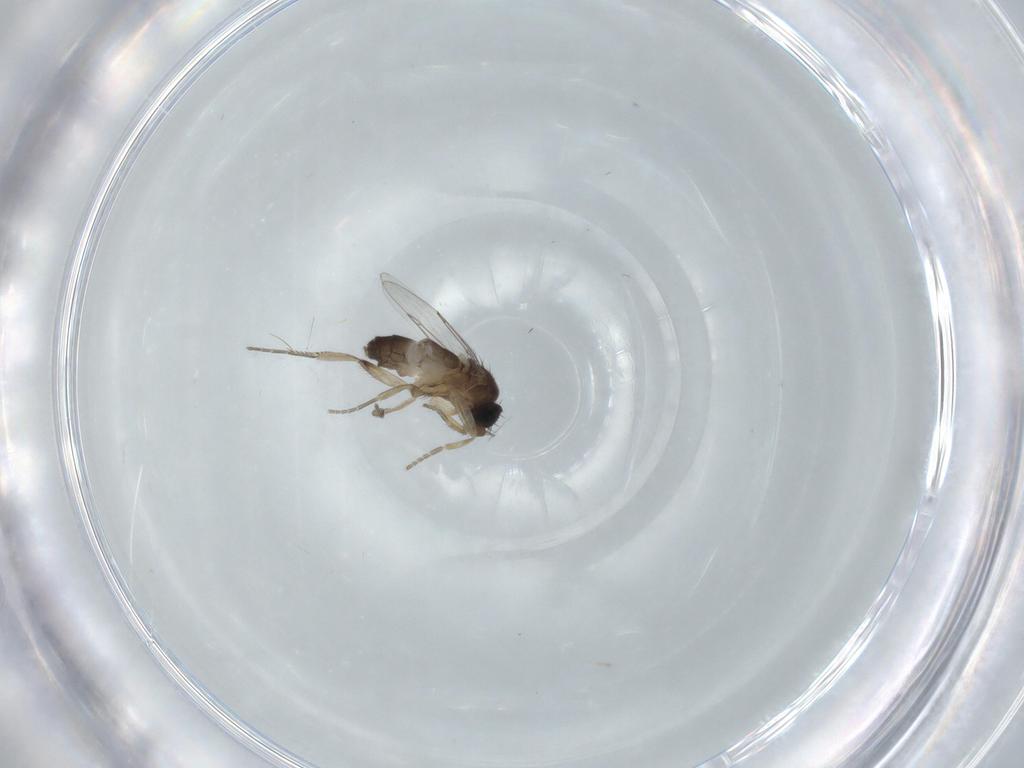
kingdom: Animalia
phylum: Arthropoda
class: Insecta
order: Diptera
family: Phoridae
